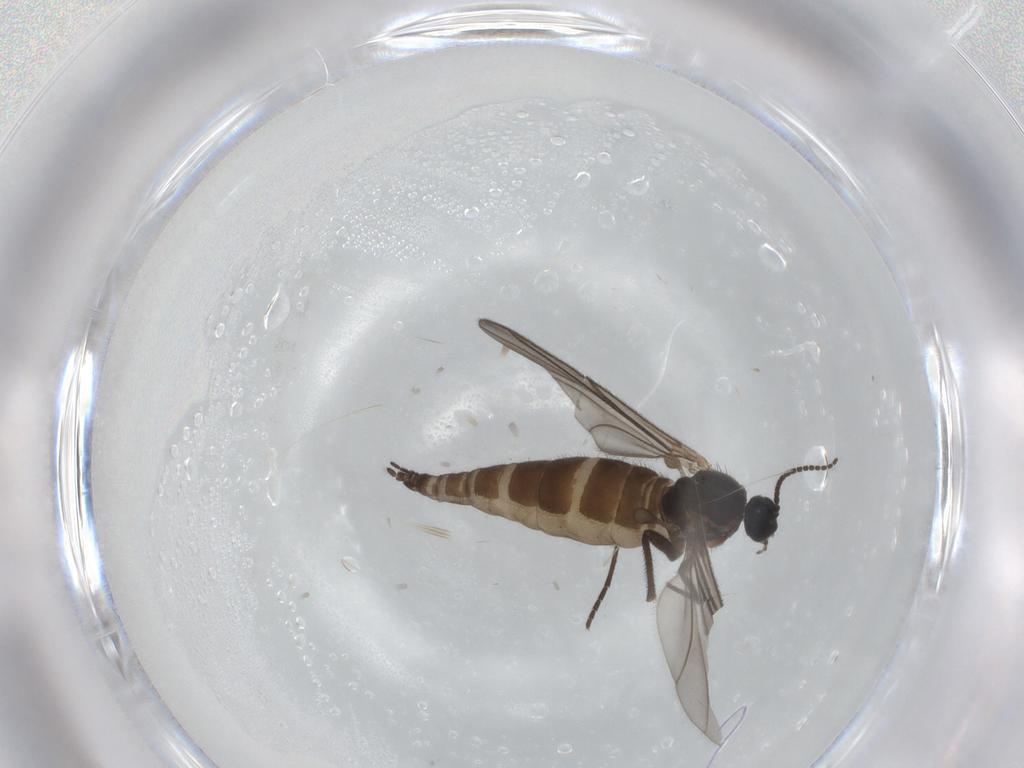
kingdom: Animalia
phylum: Arthropoda
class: Insecta
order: Diptera
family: Sciaridae
